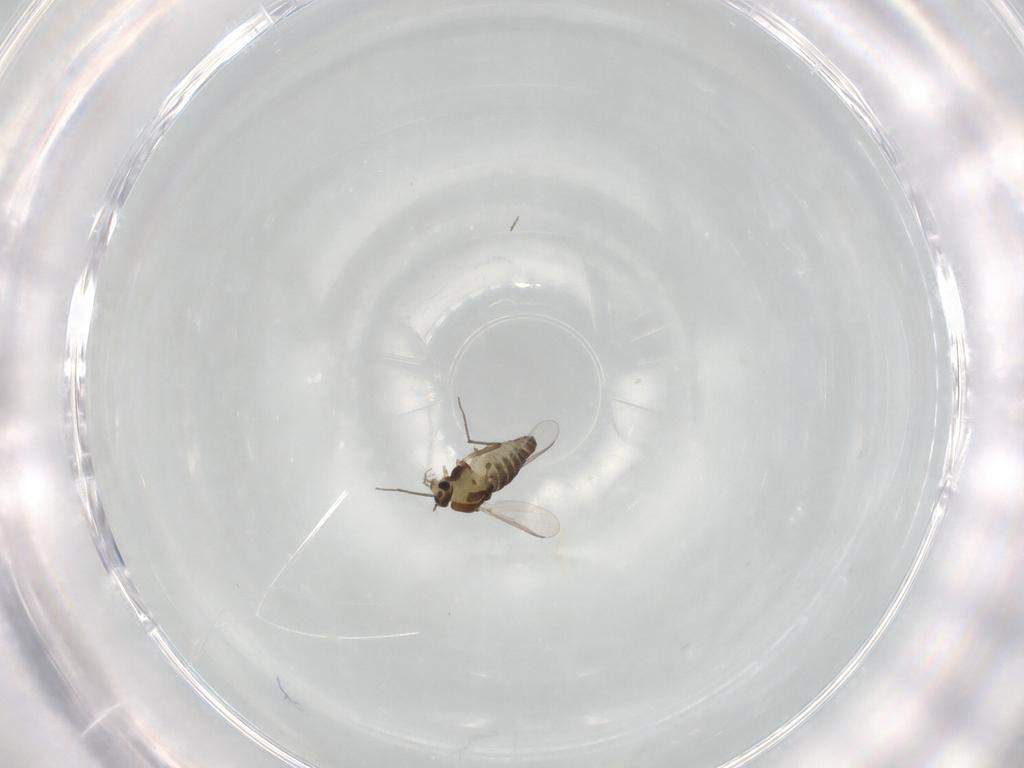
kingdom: Animalia
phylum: Arthropoda
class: Insecta
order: Diptera
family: Chironomidae
